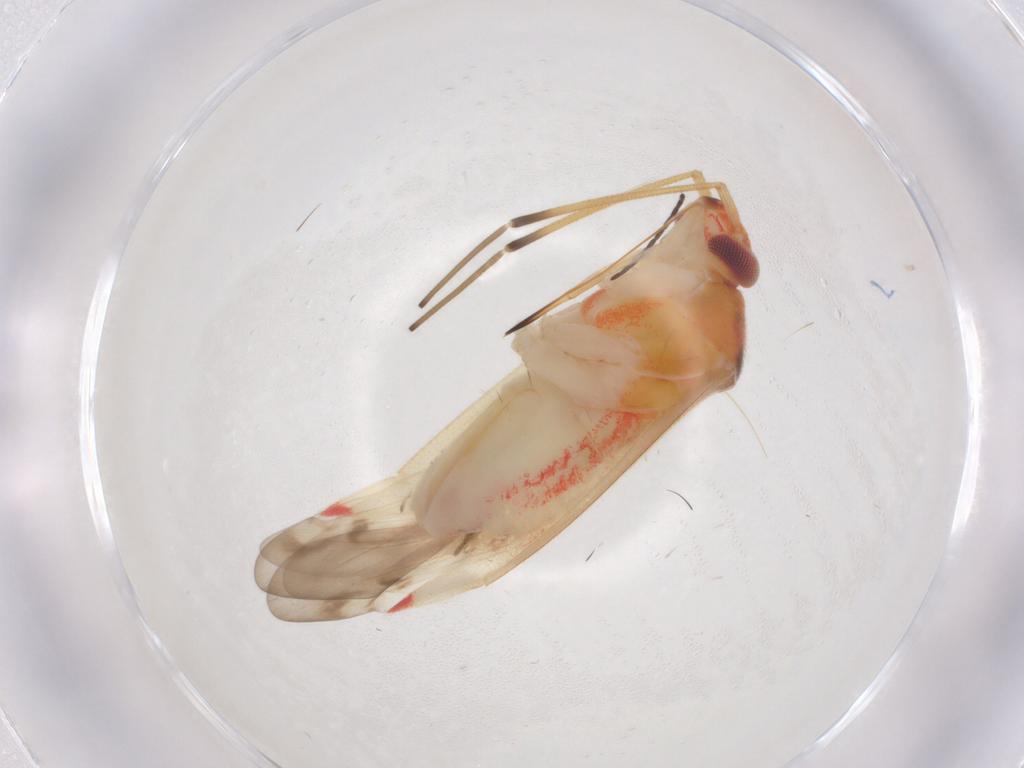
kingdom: Animalia
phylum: Arthropoda
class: Insecta
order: Hemiptera
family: Miridae
